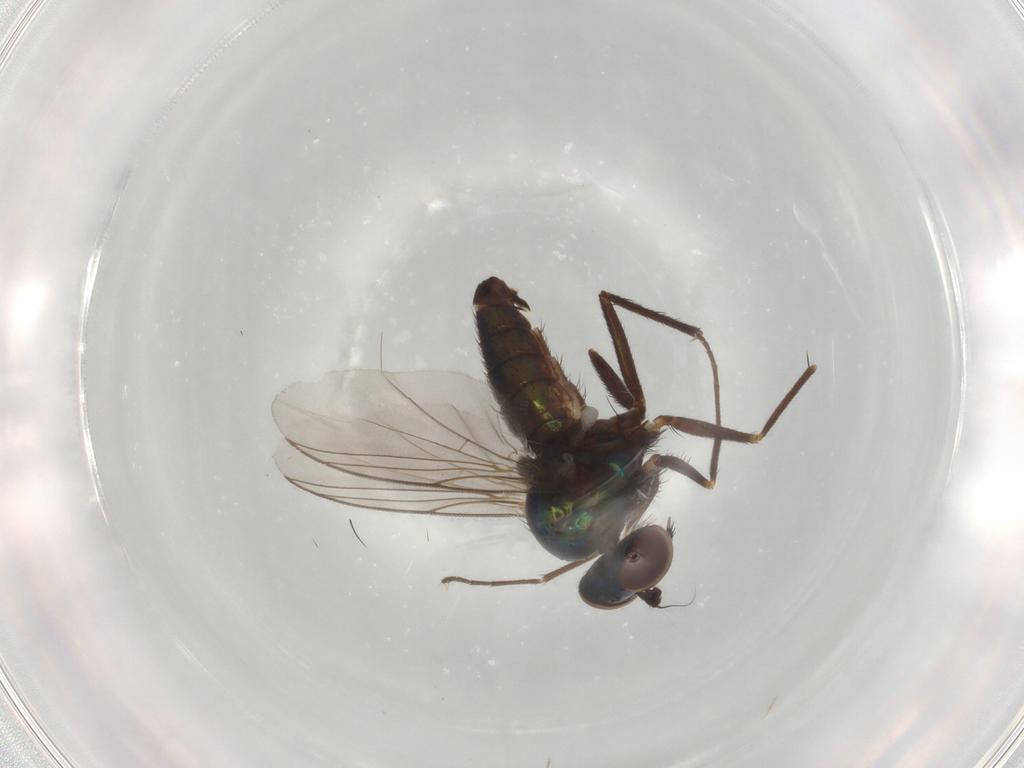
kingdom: Animalia
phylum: Arthropoda
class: Insecta
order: Diptera
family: Dolichopodidae
